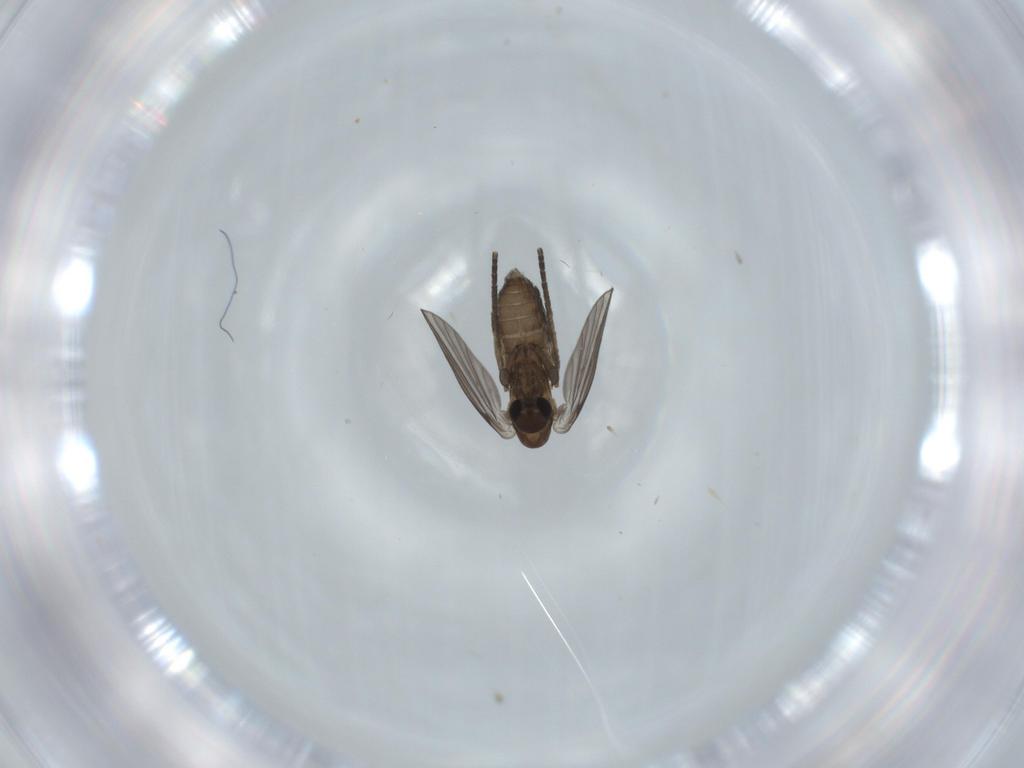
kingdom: Animalia
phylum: Arthropoda
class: Insecta
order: Diptera
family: Sciaridae
